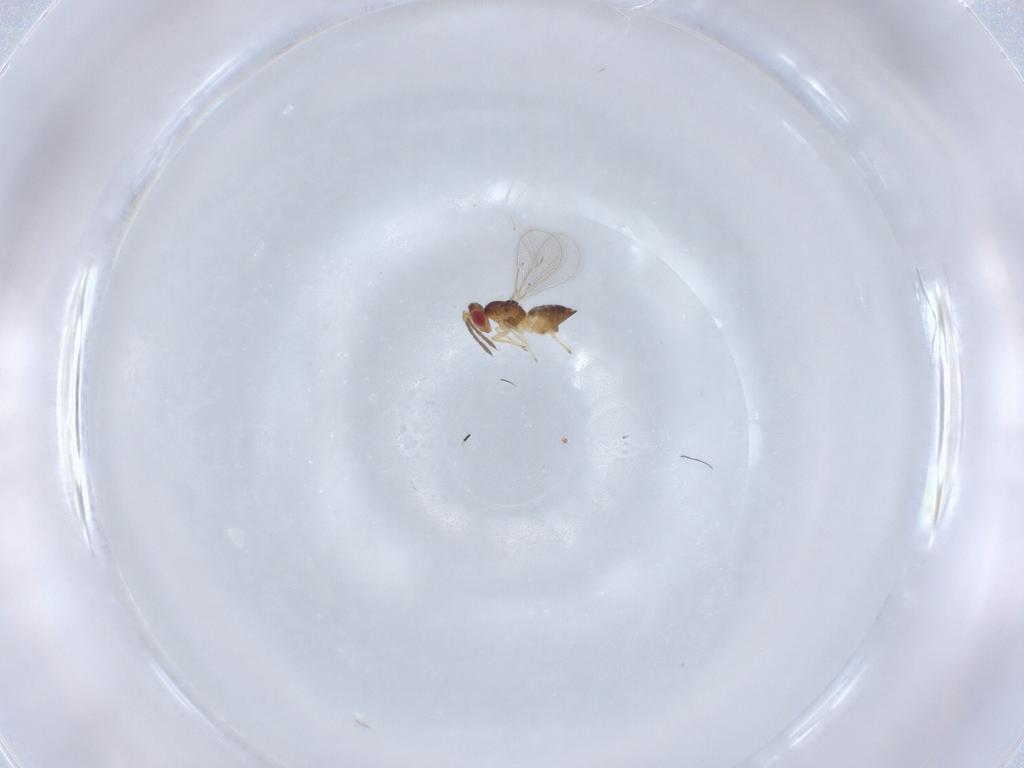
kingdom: Animalia
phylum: Arthropoda
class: Insecta
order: Hymenoptera
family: Eulophidae
